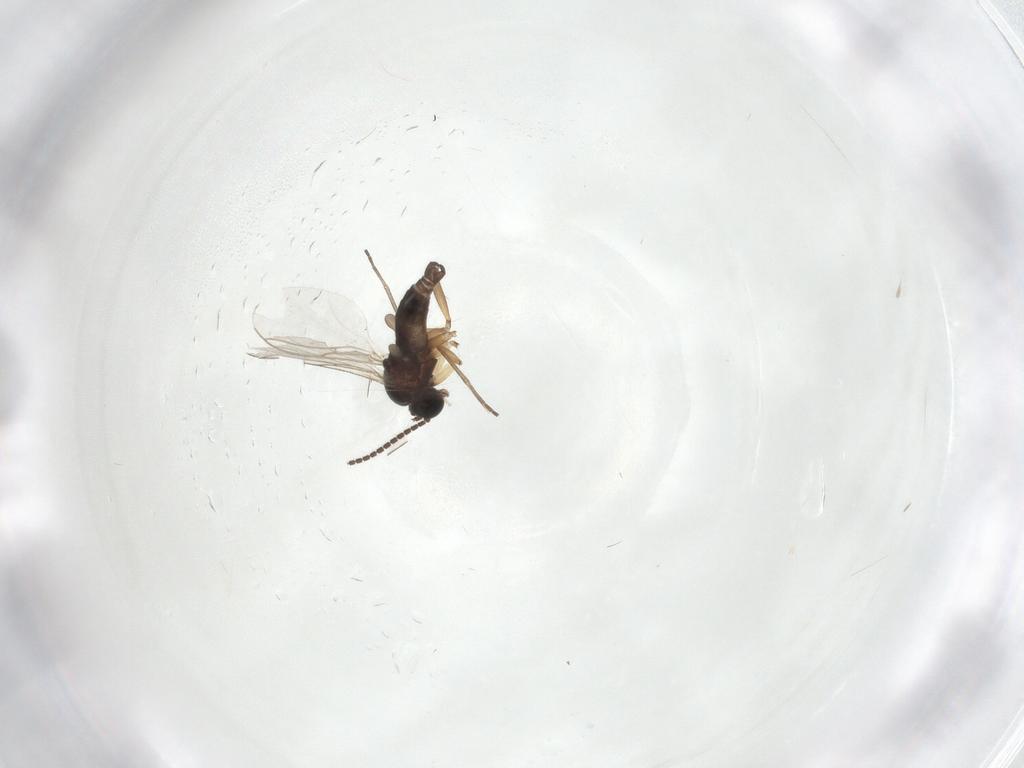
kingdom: Animalia
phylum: Arthropoda
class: Insecta
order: Diptera
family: Sciaridae
